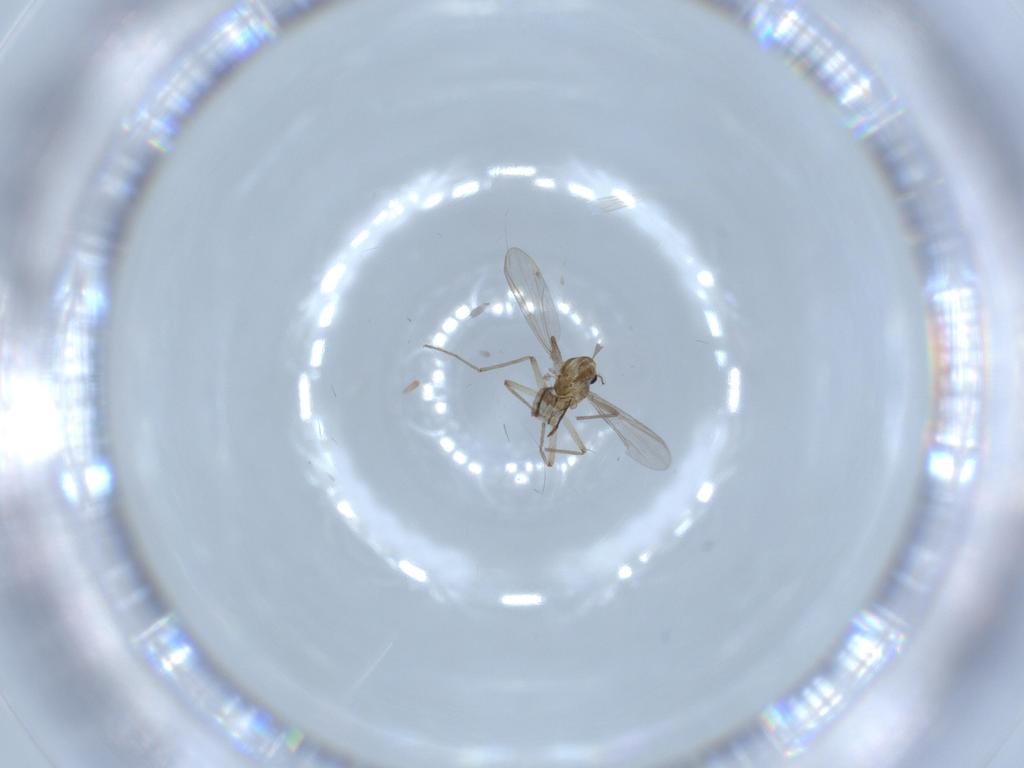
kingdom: Animalia
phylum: Arthropoda
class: Insecta
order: Diptera
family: Chironomidae
